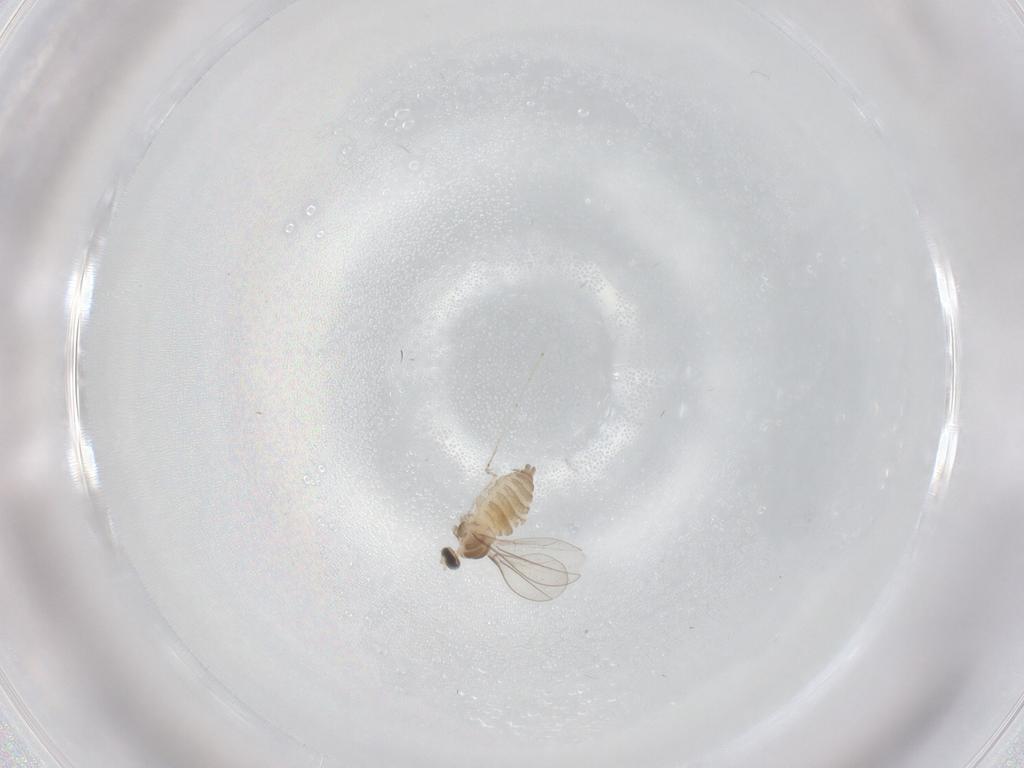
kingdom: Animalia
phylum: Arthropoda
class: Insecta
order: Diptera
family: Cecidomyiidae
